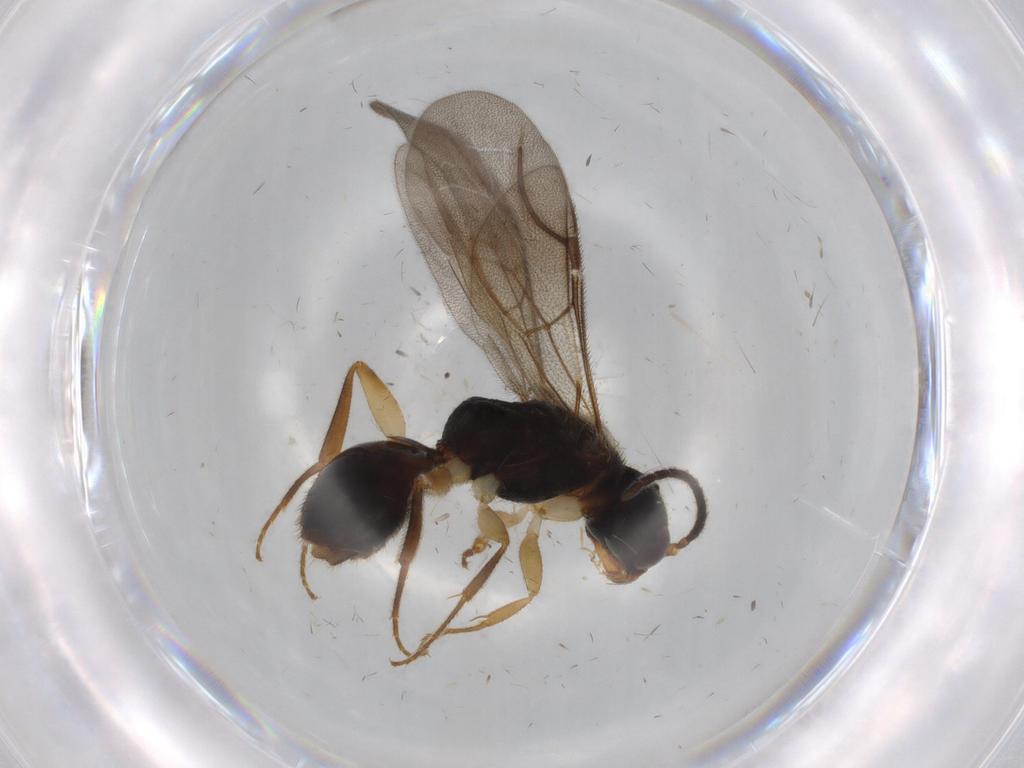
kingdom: Animalia
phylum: Arthropoda
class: Insecta
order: Hymenoptera
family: Bethylidae
